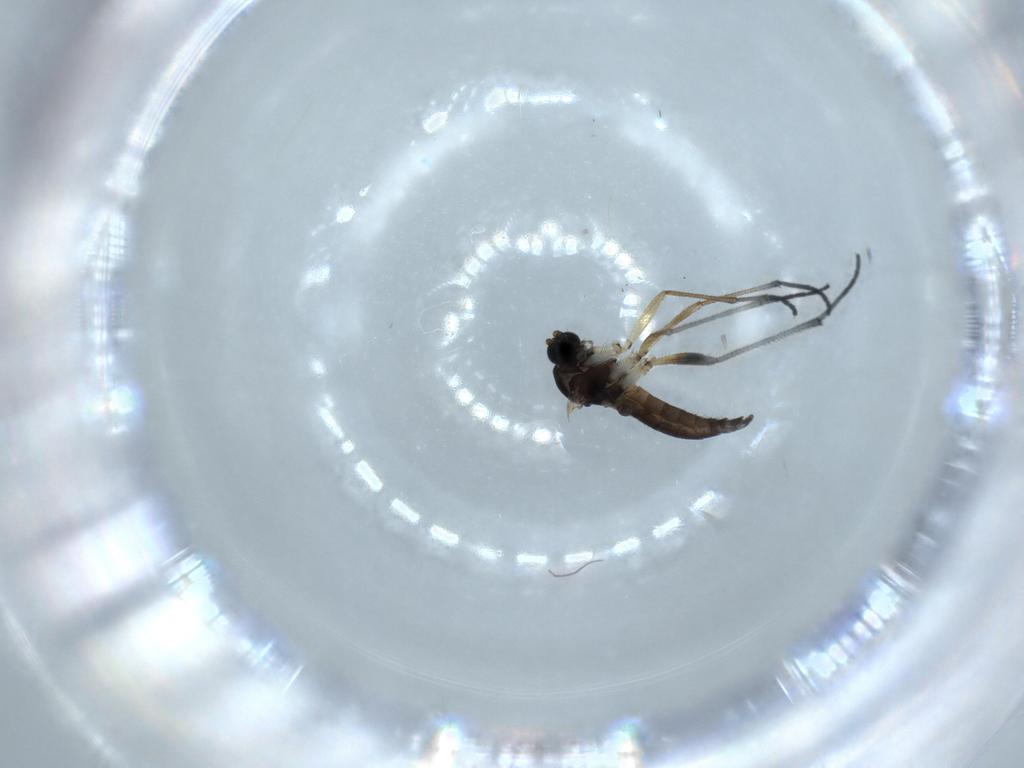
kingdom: Animalia
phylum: Arthropoda
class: Insecta
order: Diptera
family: Sciaridae
